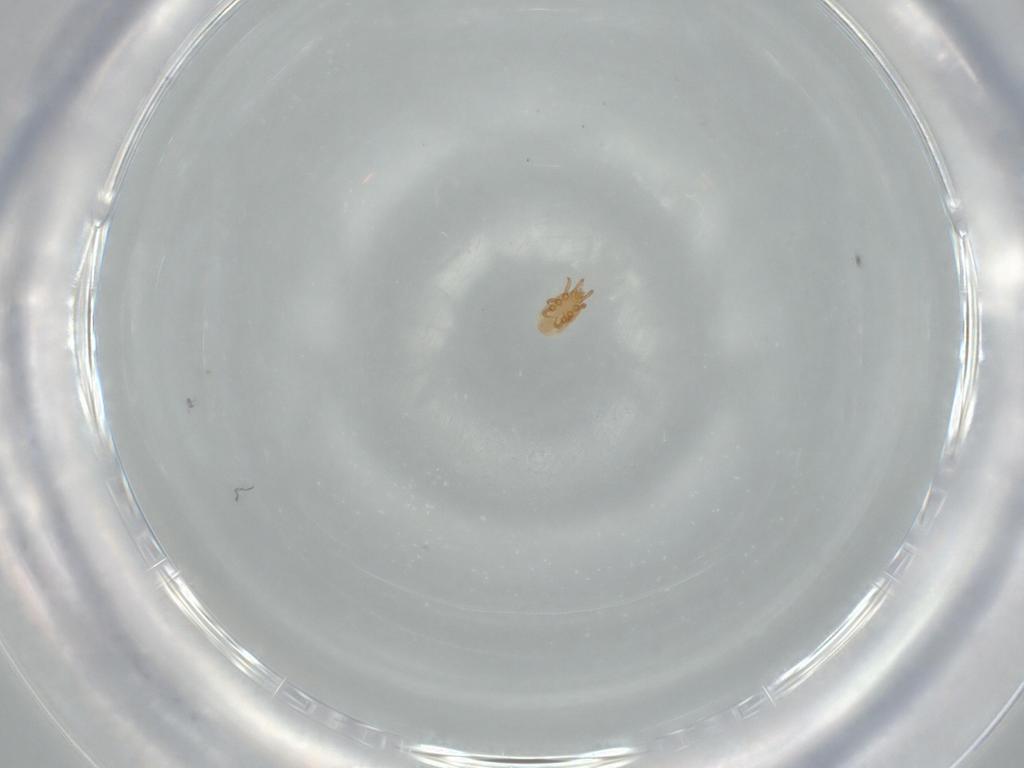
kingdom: Animalia
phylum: Arthropoda
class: Arachnida
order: Mesostigmata
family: Dinychidae
